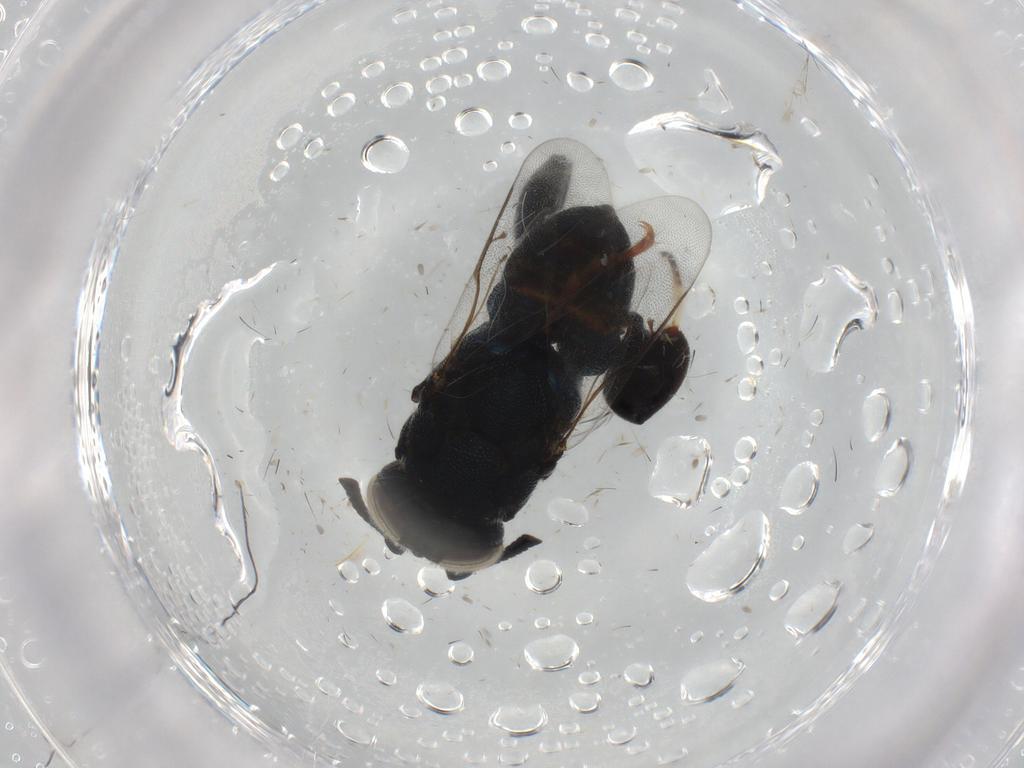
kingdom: Animalia
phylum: Arthropoda
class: Insecta
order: Hymenoptera
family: Pteromalidae
